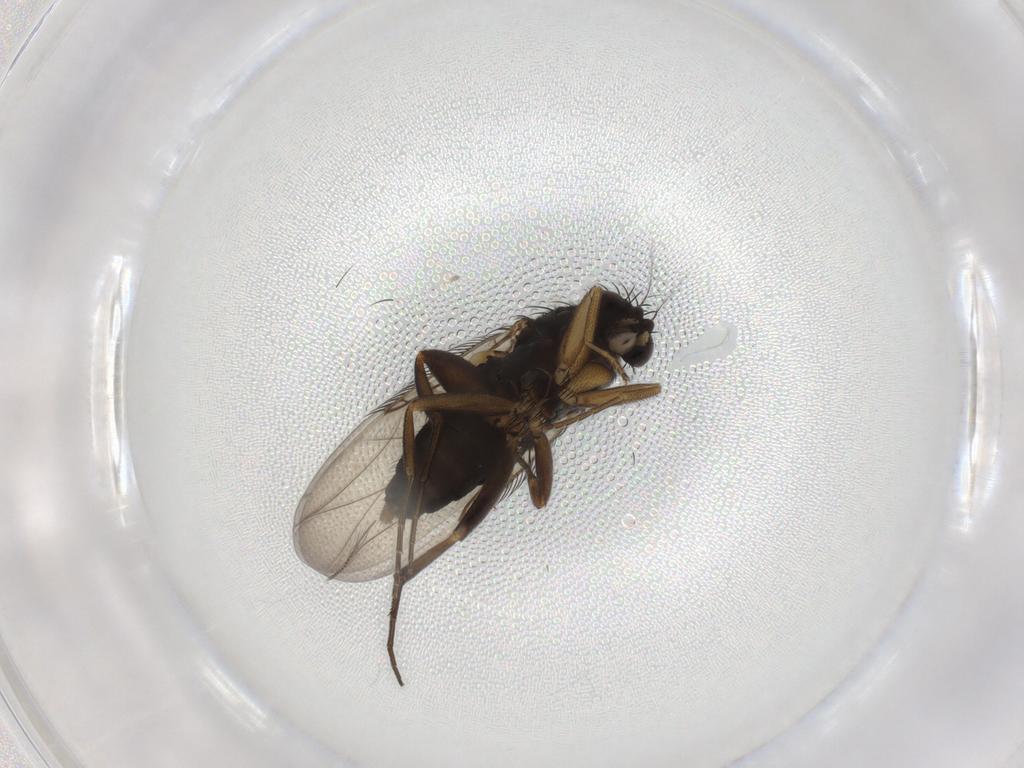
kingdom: Animalia
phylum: Arthropoda
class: Insecta
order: Diptera
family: Phoridae
